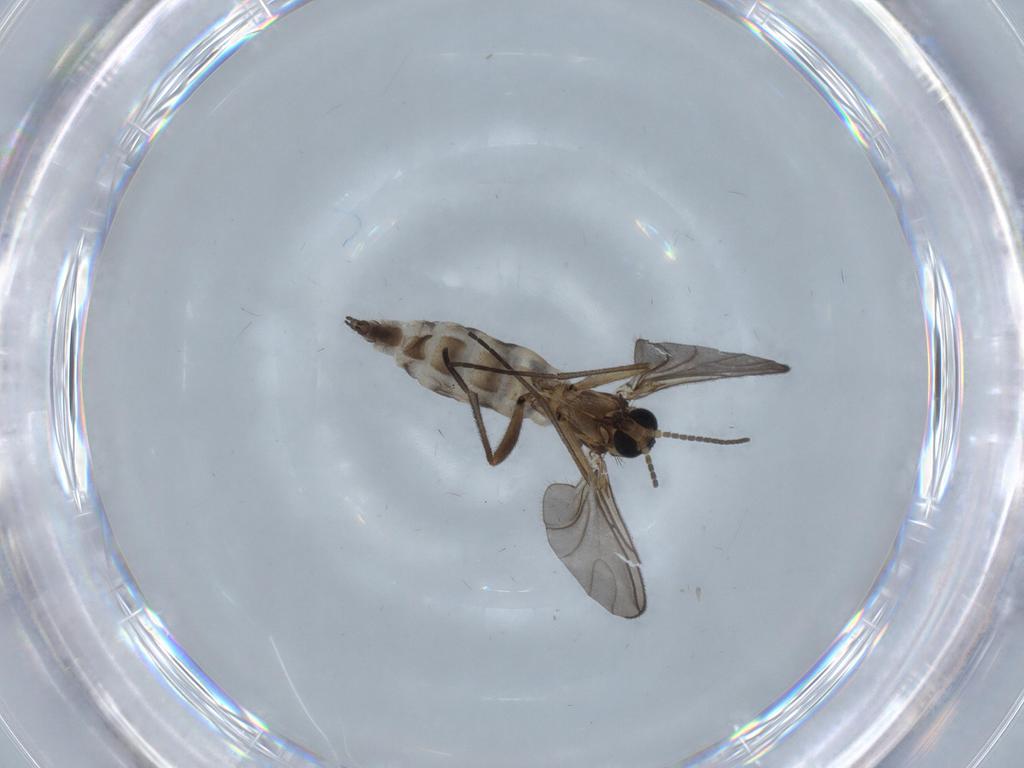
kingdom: Animalia
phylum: Arthropoda
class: Insecta
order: Diptera
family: Sciaridae
